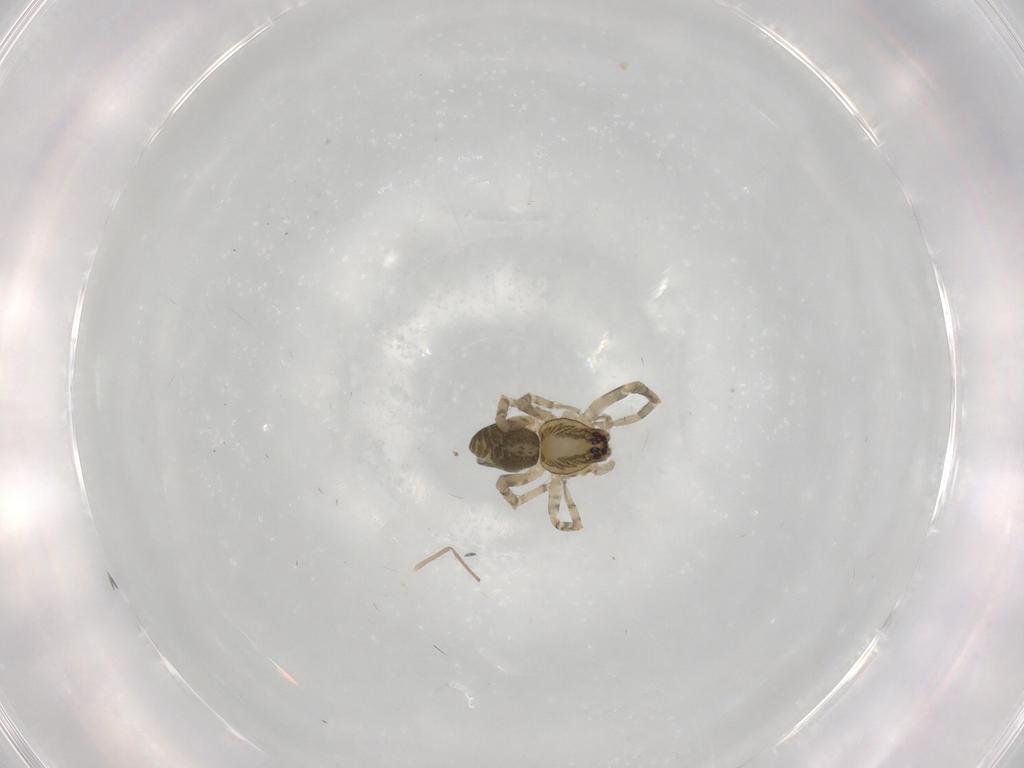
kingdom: Animalia
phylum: Arthropoda
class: Arachnida
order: Araneae
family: Anyphaenidae
